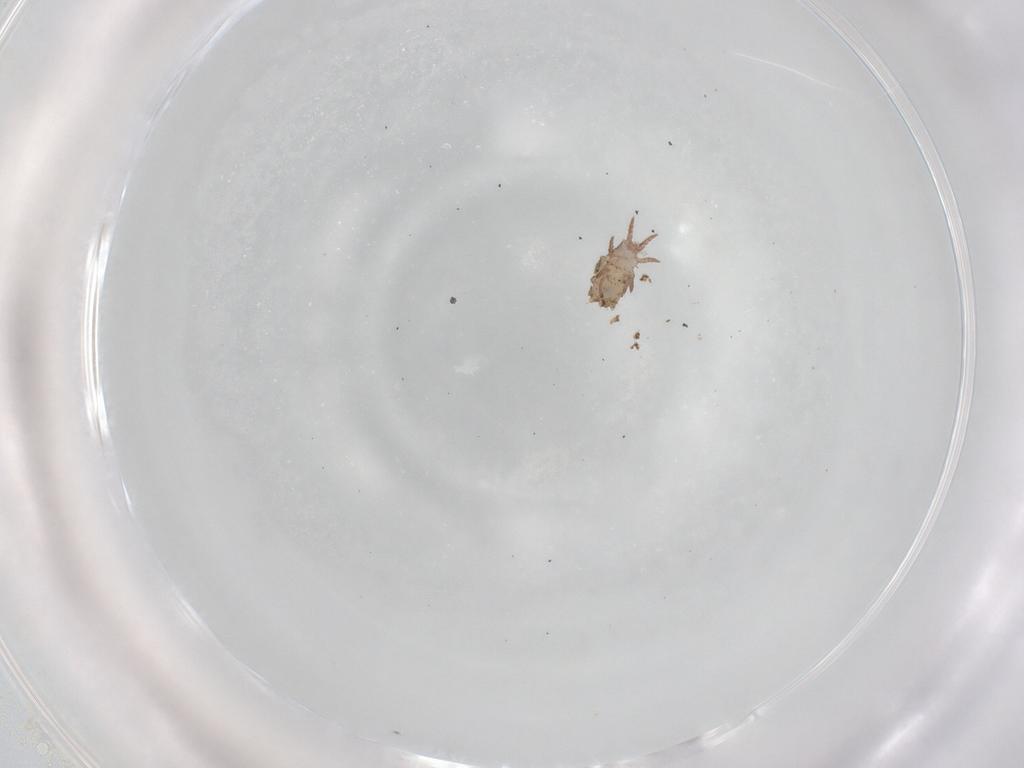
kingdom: Animalia
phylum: Arthropoda
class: Arachnida
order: Sarcoptiformes
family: Crotoniidae
